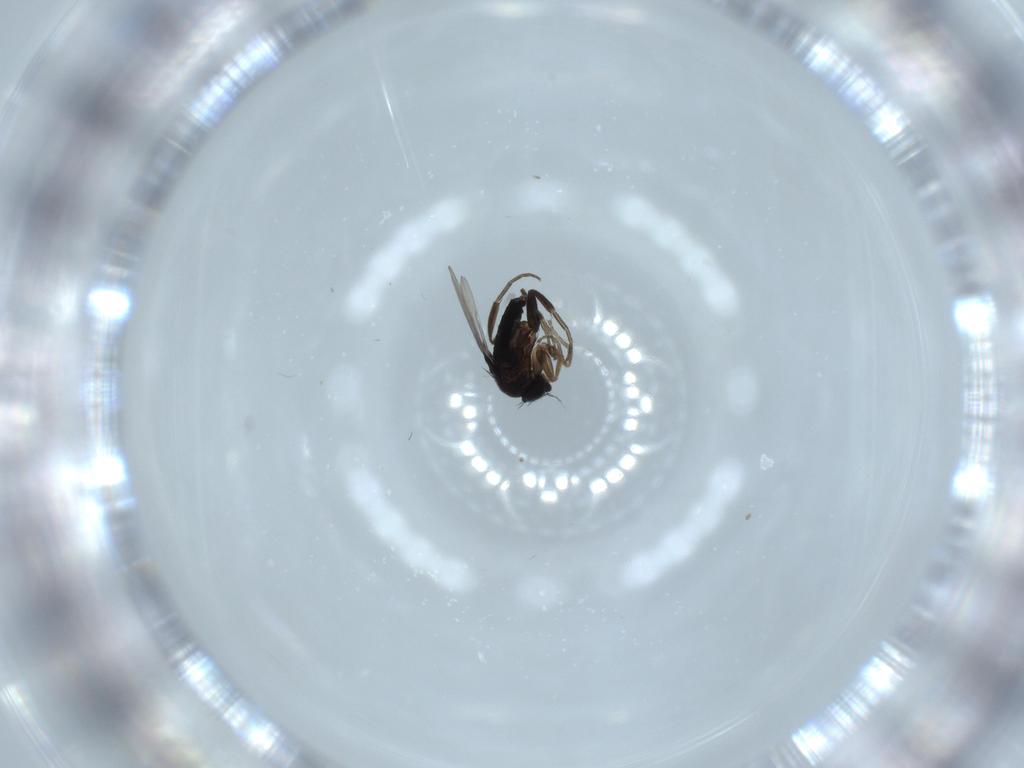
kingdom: Animalia
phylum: Arthropoda
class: Insecta
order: Diptera
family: Phoridae
